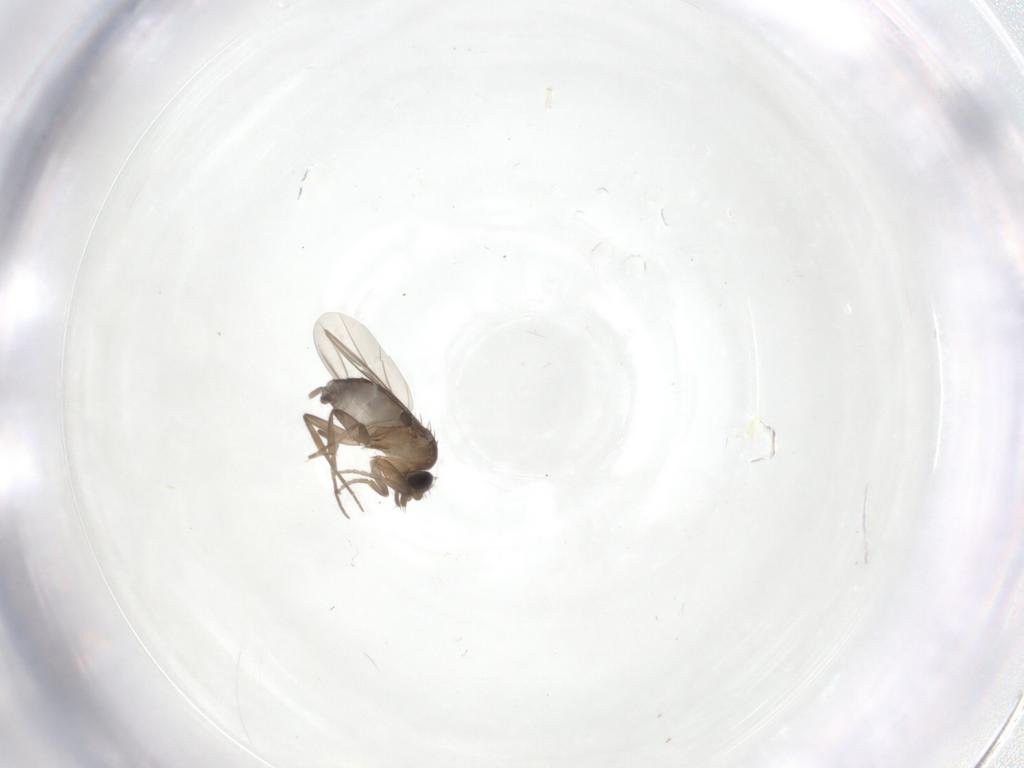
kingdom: Animalia
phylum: Arthropoda
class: Insecta
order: Diptera
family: Phoridae
